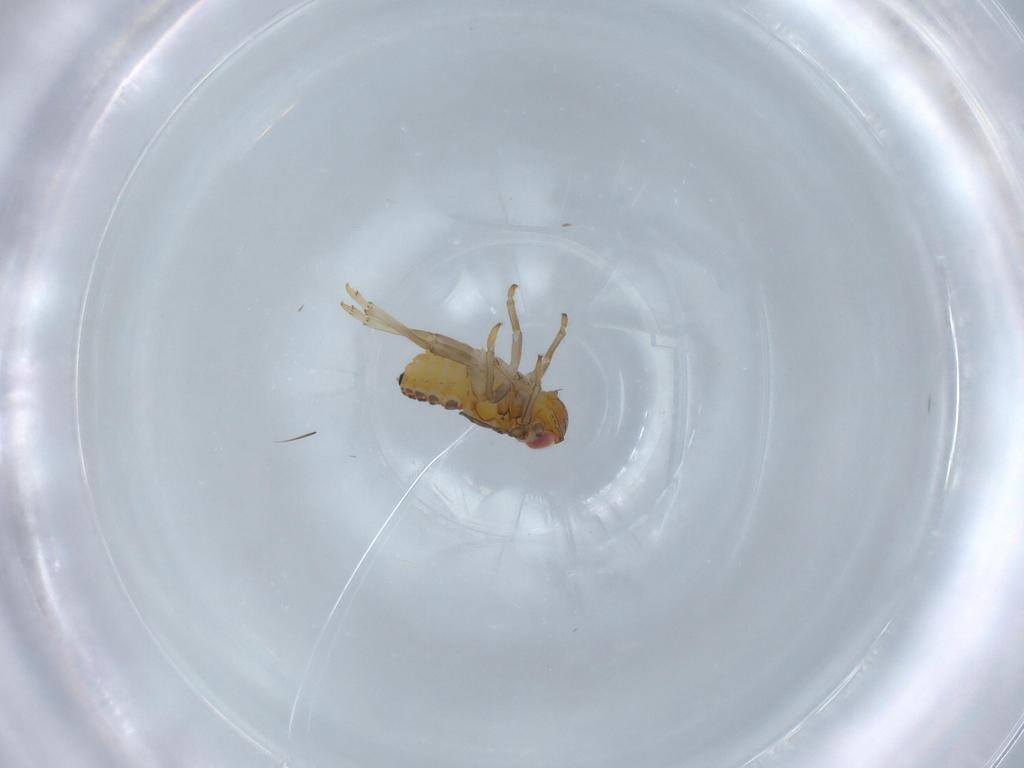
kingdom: Animalia
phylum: Arthropoda
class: Insecta
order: Hemiptera
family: Issidae
